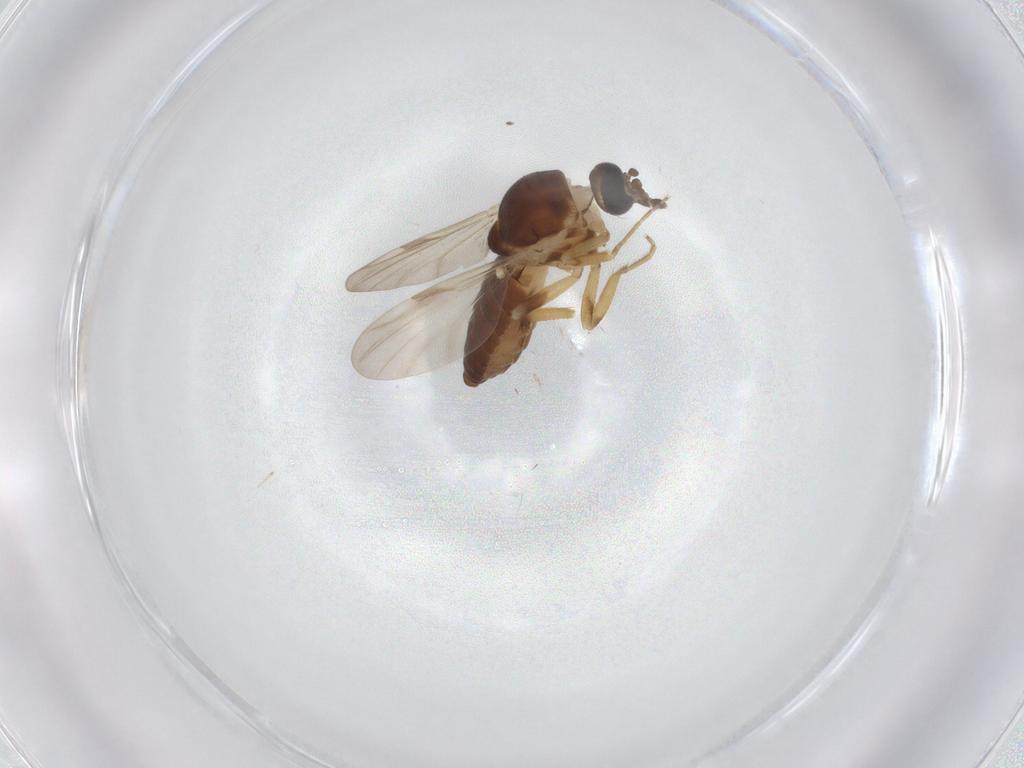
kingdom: Animalia
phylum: Arthropoda
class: Insecta
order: Diptera
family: Ceratopogonidae
